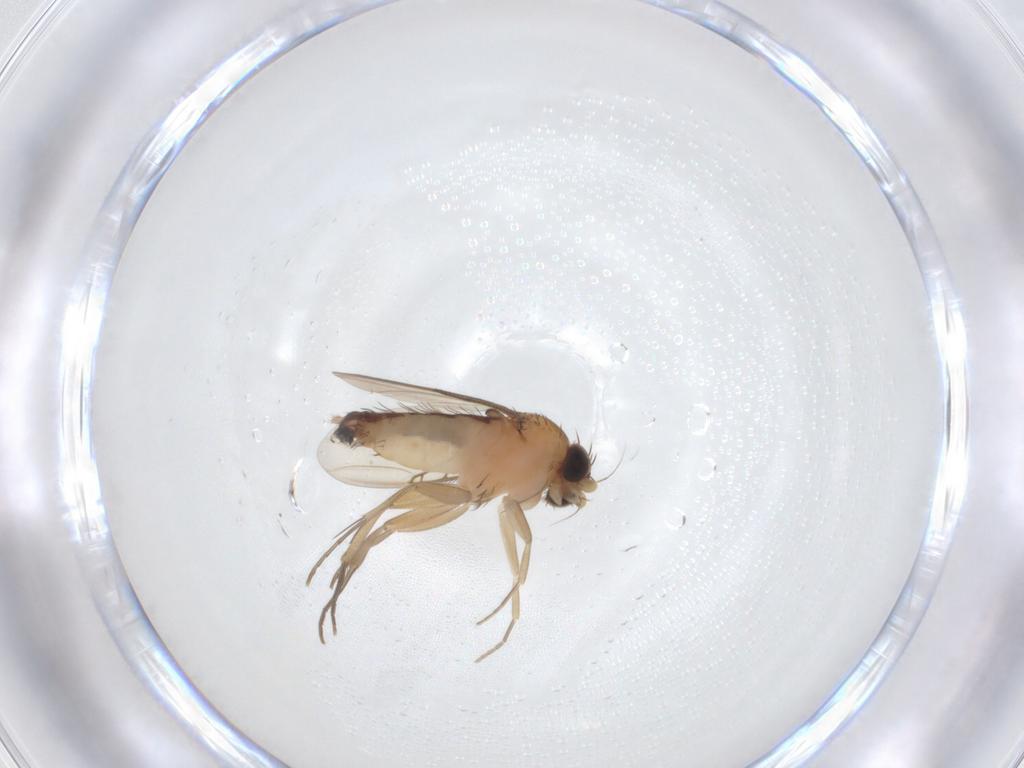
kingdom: Animalia
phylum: Arthropoda
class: Insecta
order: Diptera
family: Phoridae
